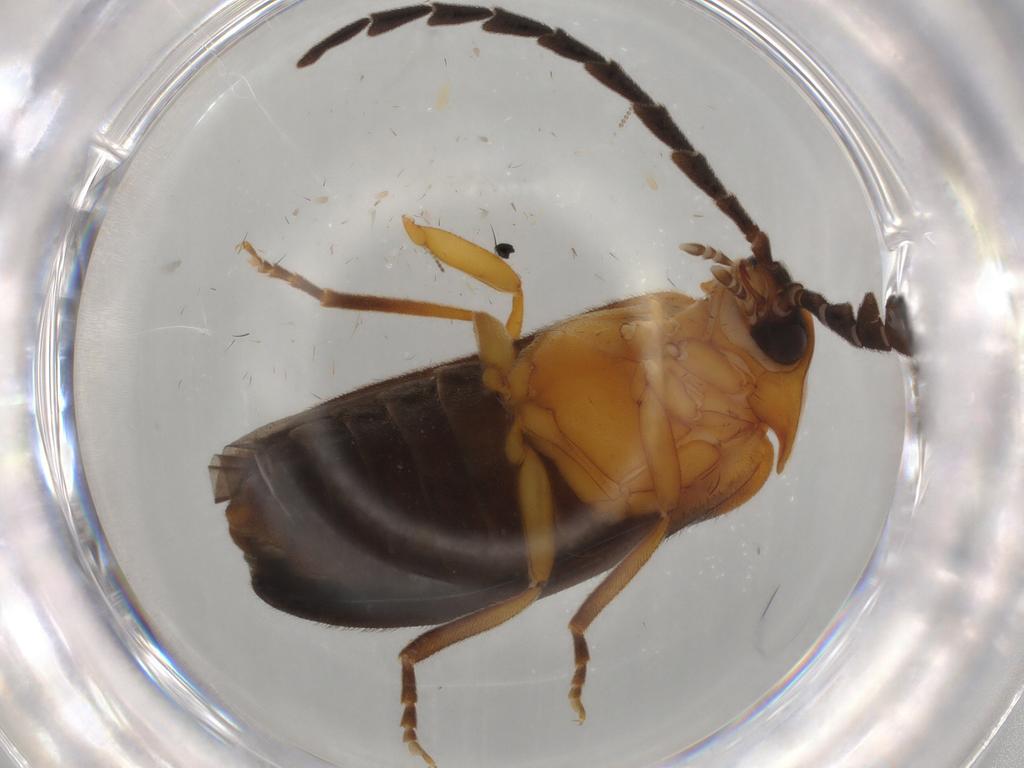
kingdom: Animalia
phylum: Arthropoda
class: Insecta
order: Coleoptera
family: Lampyridae
